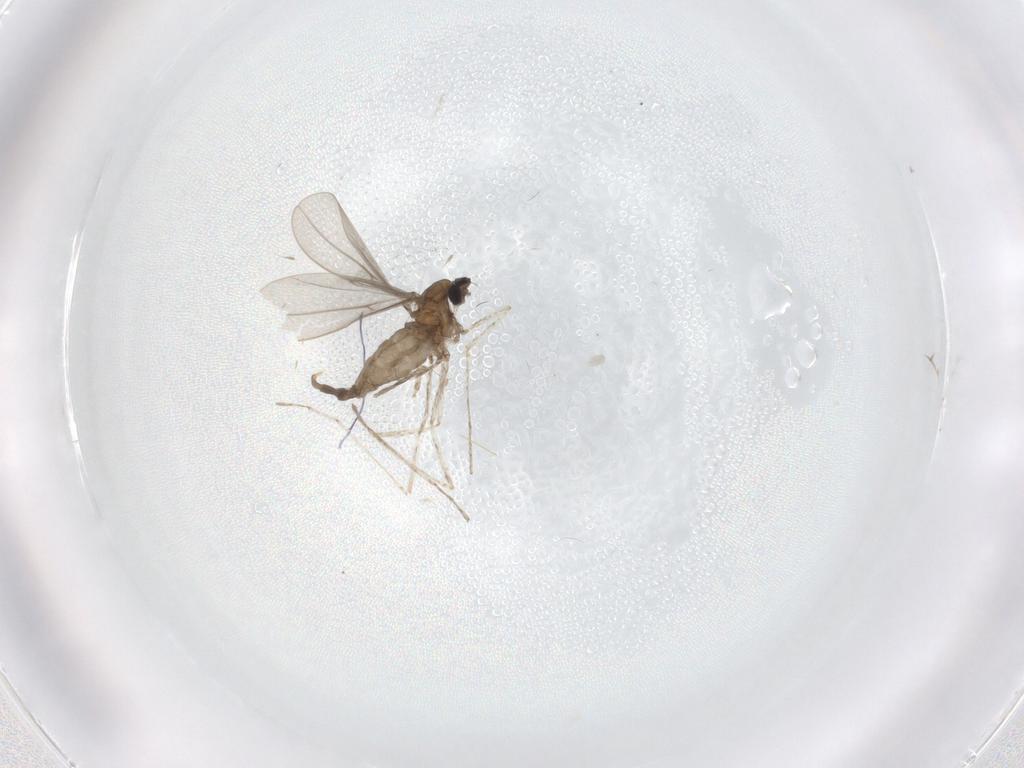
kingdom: Animalia
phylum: Arthropoda
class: Insecta
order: Diptera
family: Cecidomyiidae
